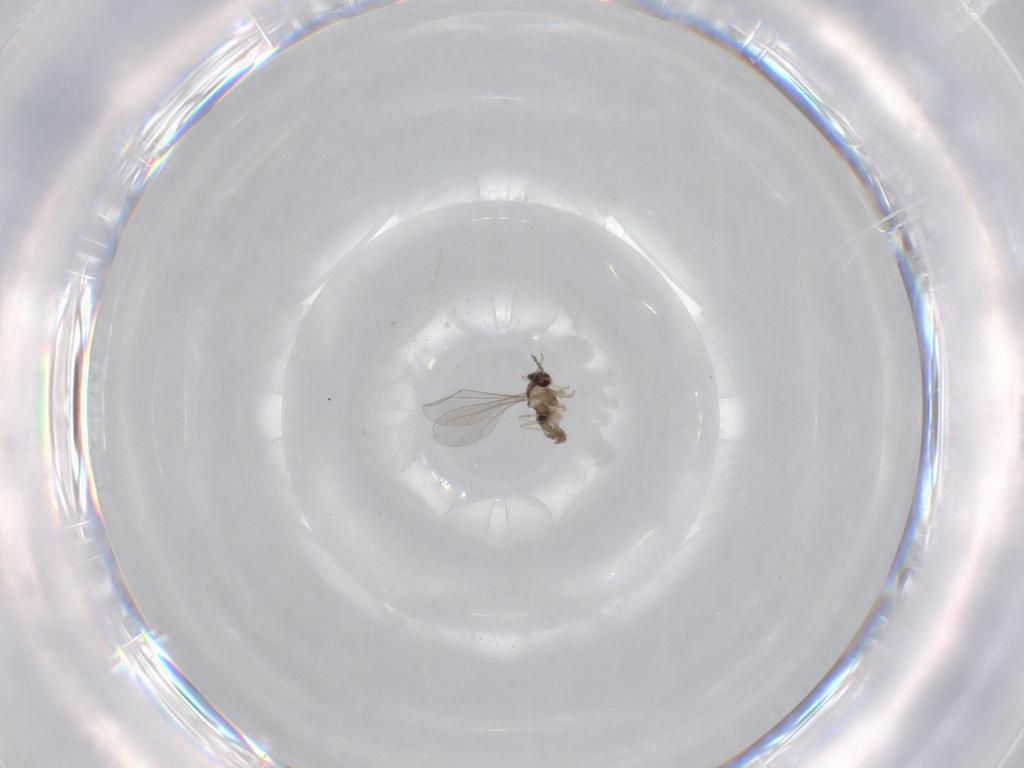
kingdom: Animalia
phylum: Arthropoda
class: Insecta
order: Diptera
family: Chironomidae
